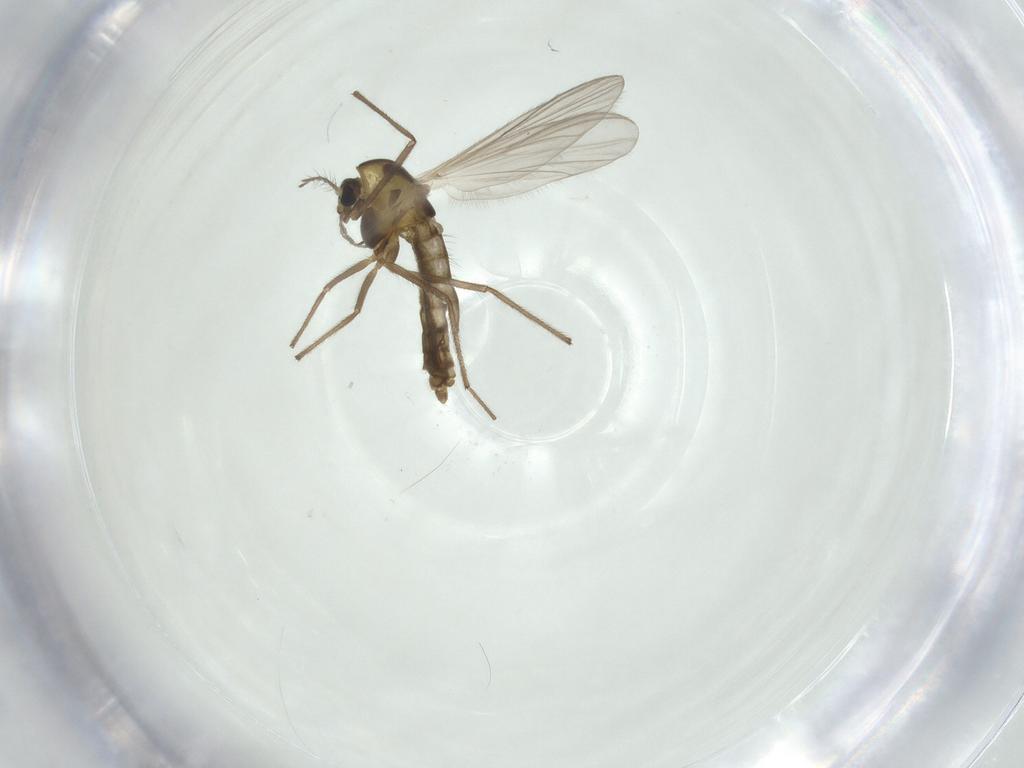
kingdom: Animalia
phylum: Arthropoda
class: Insecta
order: Diptera
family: Chironomidae
